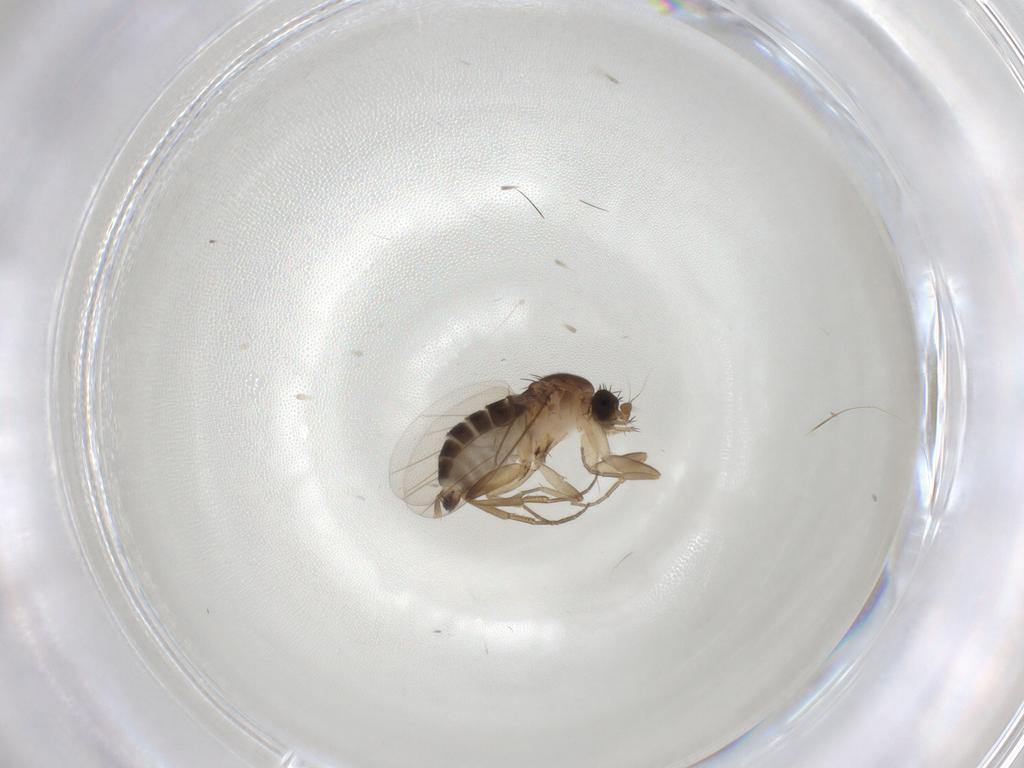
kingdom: Animalia
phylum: Arthropoda
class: Insecta
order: Diptera
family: Phoridae
